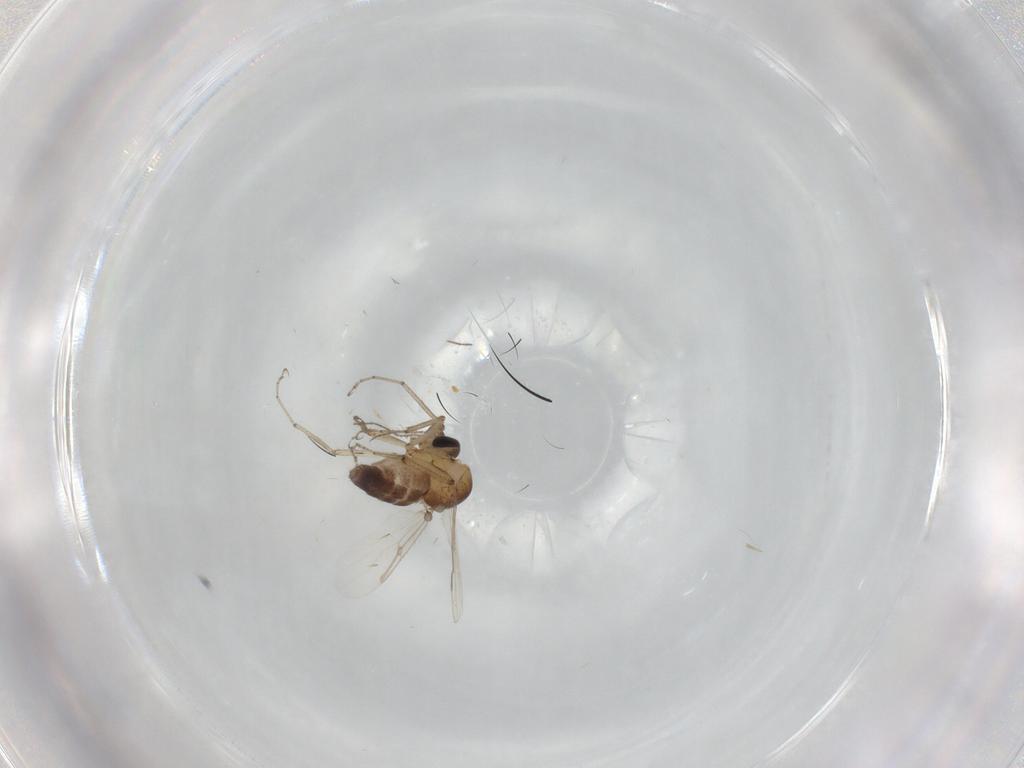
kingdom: Animalia
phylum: Arthropoda
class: Insecta
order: Diptera
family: Ceratopogonidae
